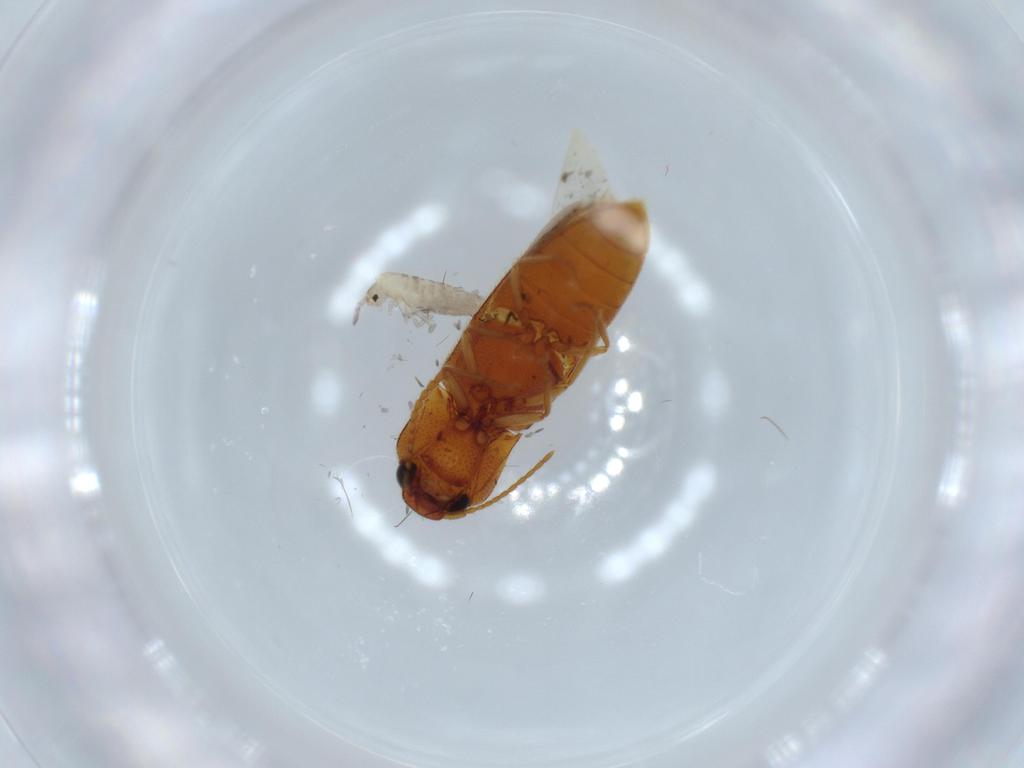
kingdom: Animalia
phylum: Arthropoda
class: Insecta
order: Coleoptera
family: Elateridae
